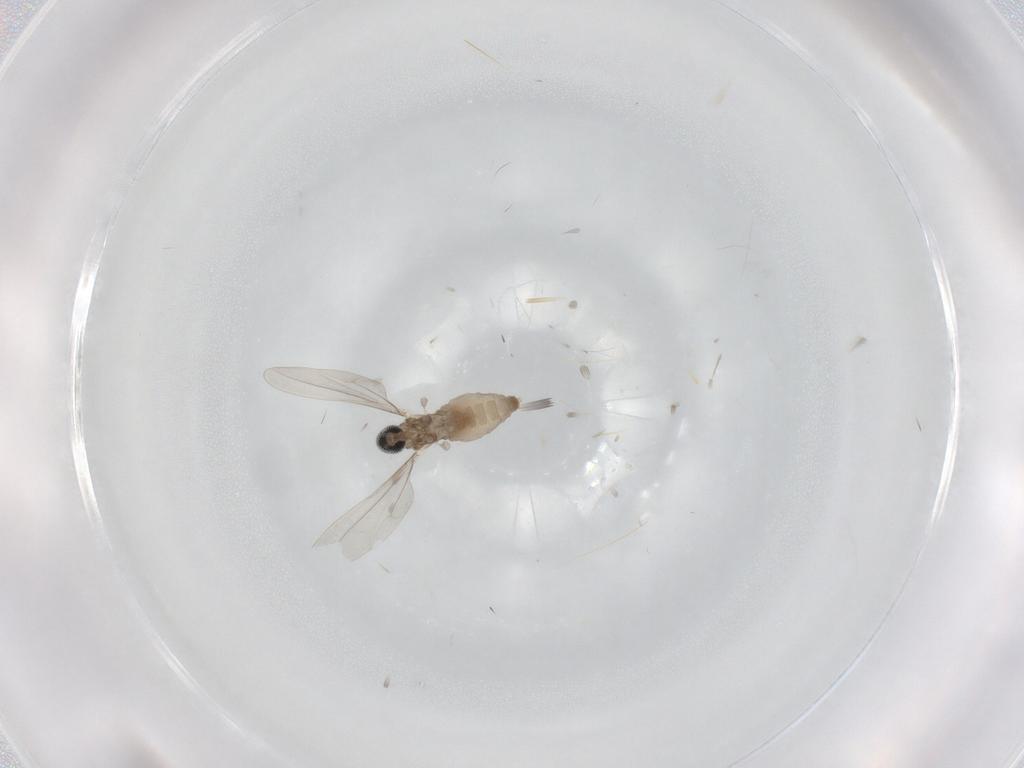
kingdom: Animalia
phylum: Arthropoda
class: Insecta
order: Diptera
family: Cecidomyiidae
